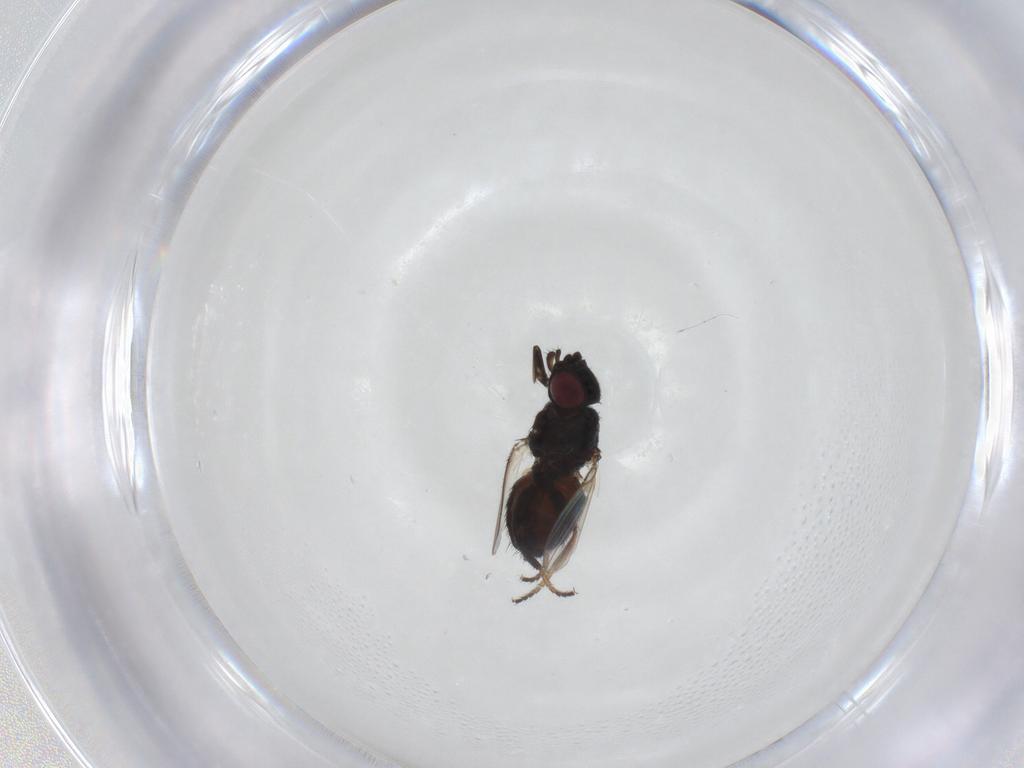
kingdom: Animalia
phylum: Arthropoda
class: Insecta
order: Diptera
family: Milichiidae
